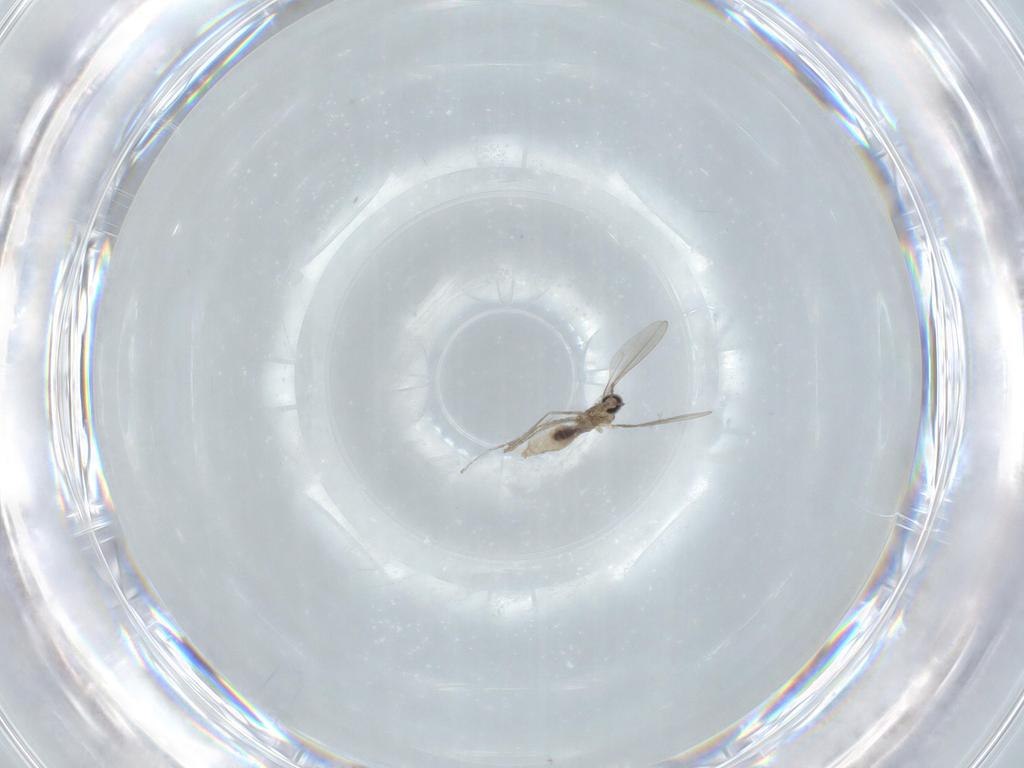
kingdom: Animalia
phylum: Arthropoda
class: Insecta
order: Diptera
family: Cecidomyiidae
